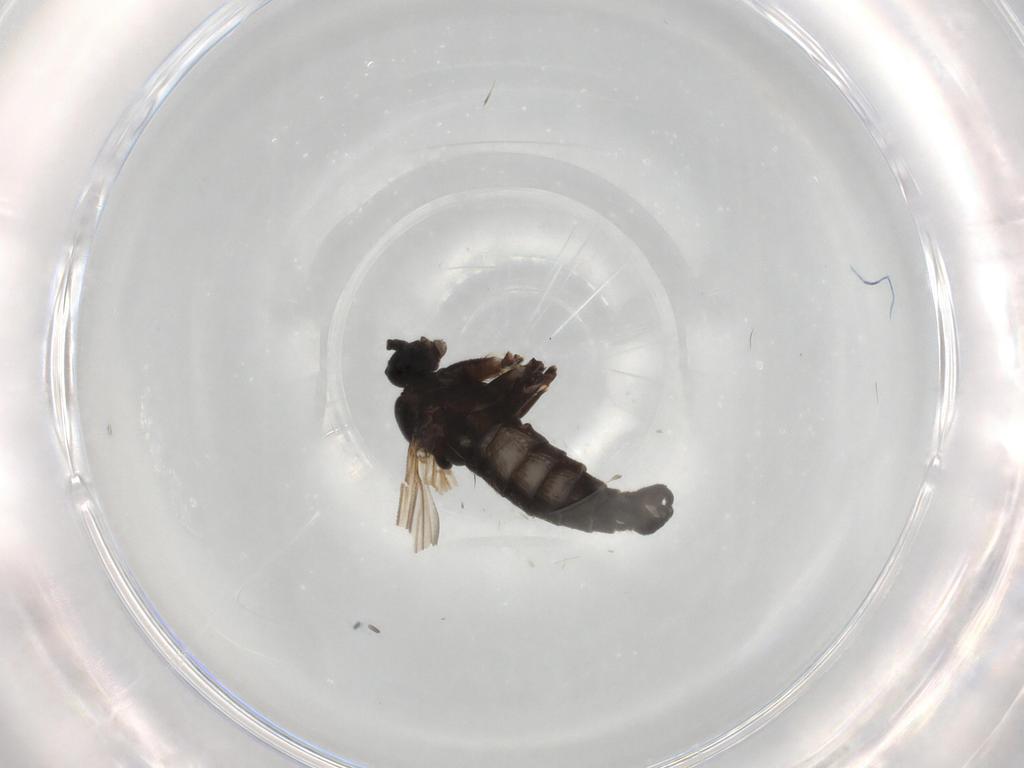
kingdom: Animalia
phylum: Arthropoda
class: Insecta
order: Diptera
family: Sciaridae
